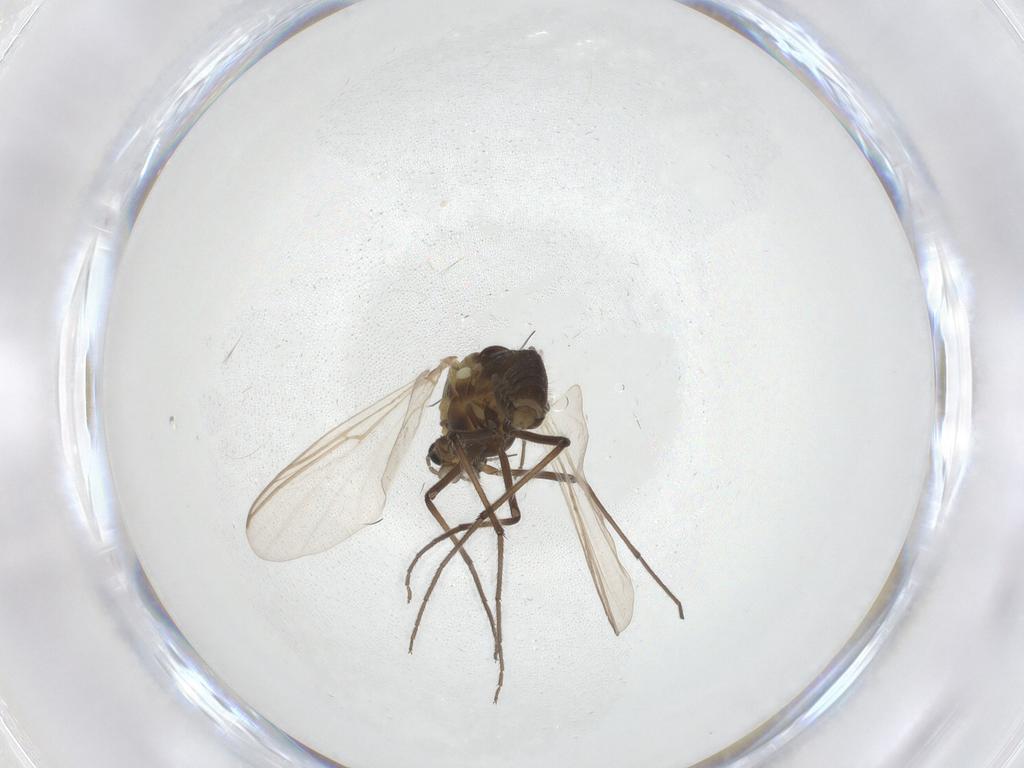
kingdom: Animalia
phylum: Arthropoda
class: Insecta
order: Diptera
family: Chironomidae
